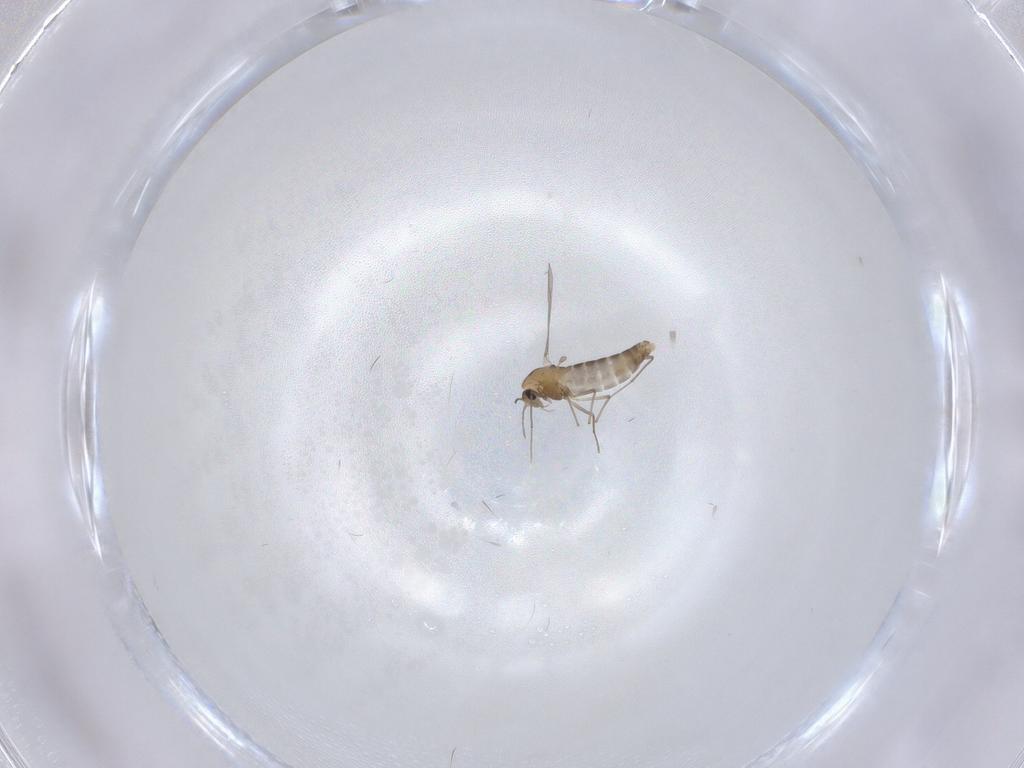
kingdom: Animalia
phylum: Arthropoda
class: Insecta
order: Diptera
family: Chironomidae
